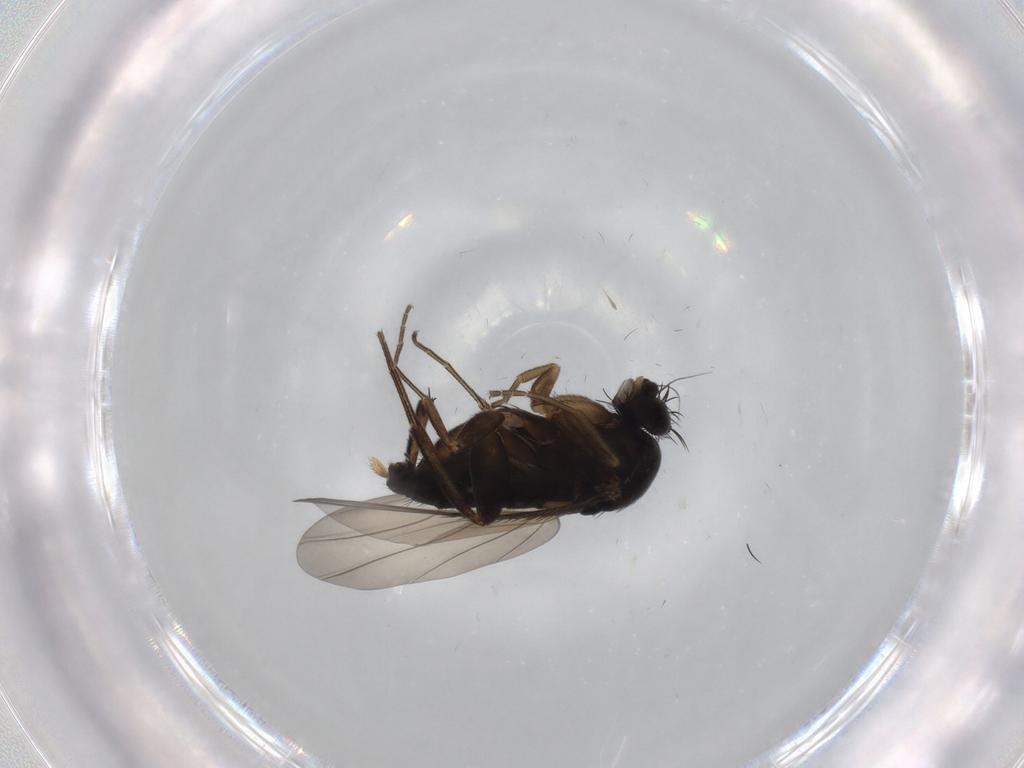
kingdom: Animalia
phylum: Arthropoda
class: Insecta
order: Diptera
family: Phoridae
